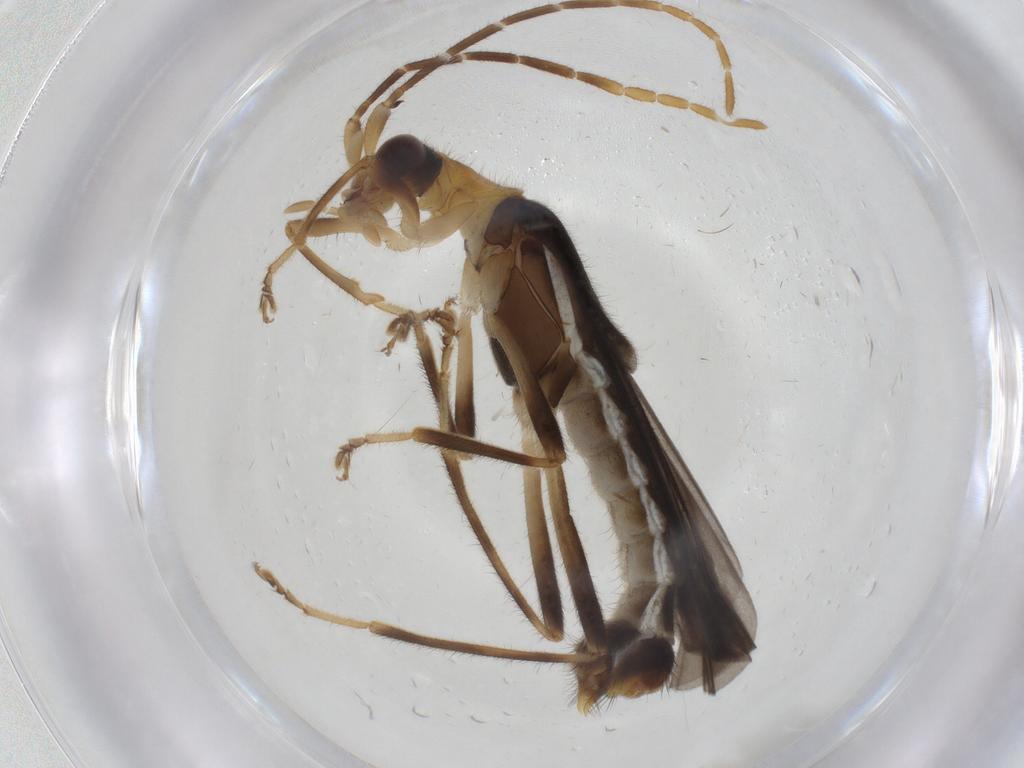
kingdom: Animalia
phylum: Arthropoda
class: Insecta
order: Coleoptera
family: Cantharidae
